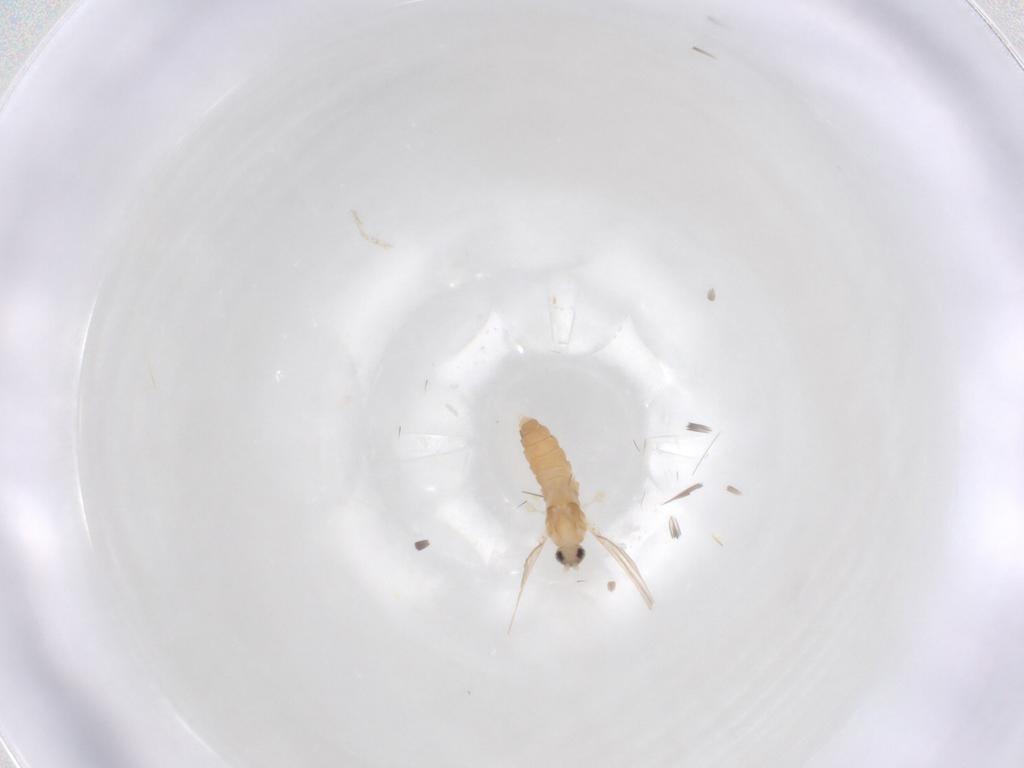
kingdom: Animalia
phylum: Arthropoda
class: Insecta
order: Diptera
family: Cecidomyiidae
